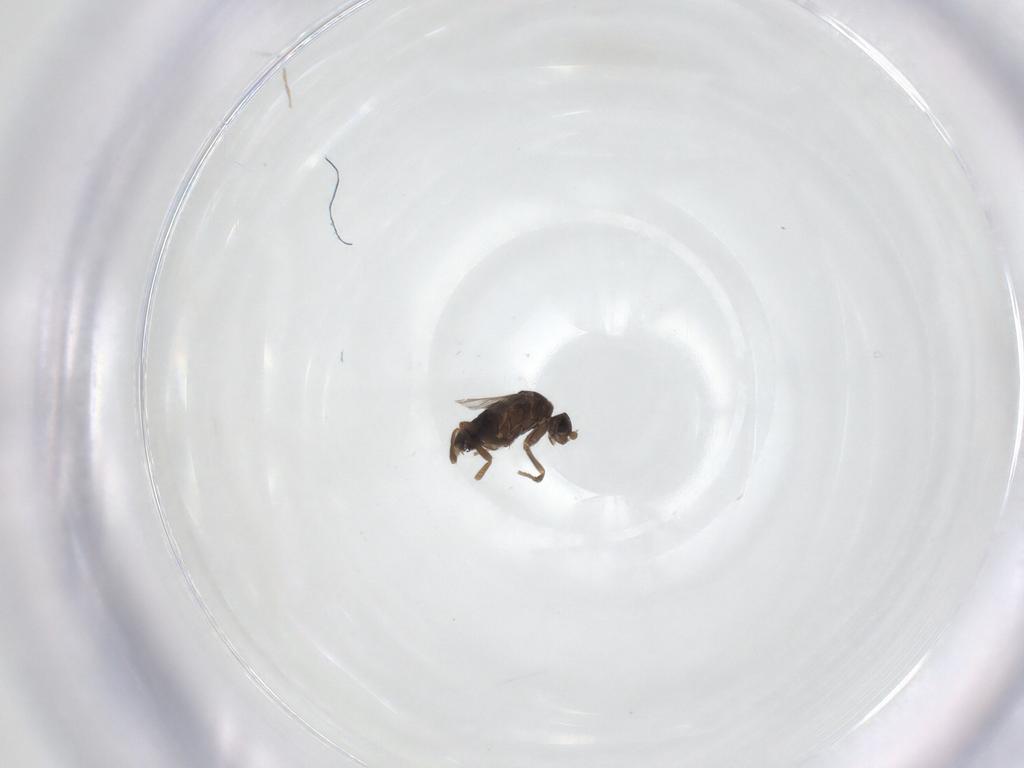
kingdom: Animalia
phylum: Arthropoda
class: Insecta
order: Diptera
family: Phoridae
